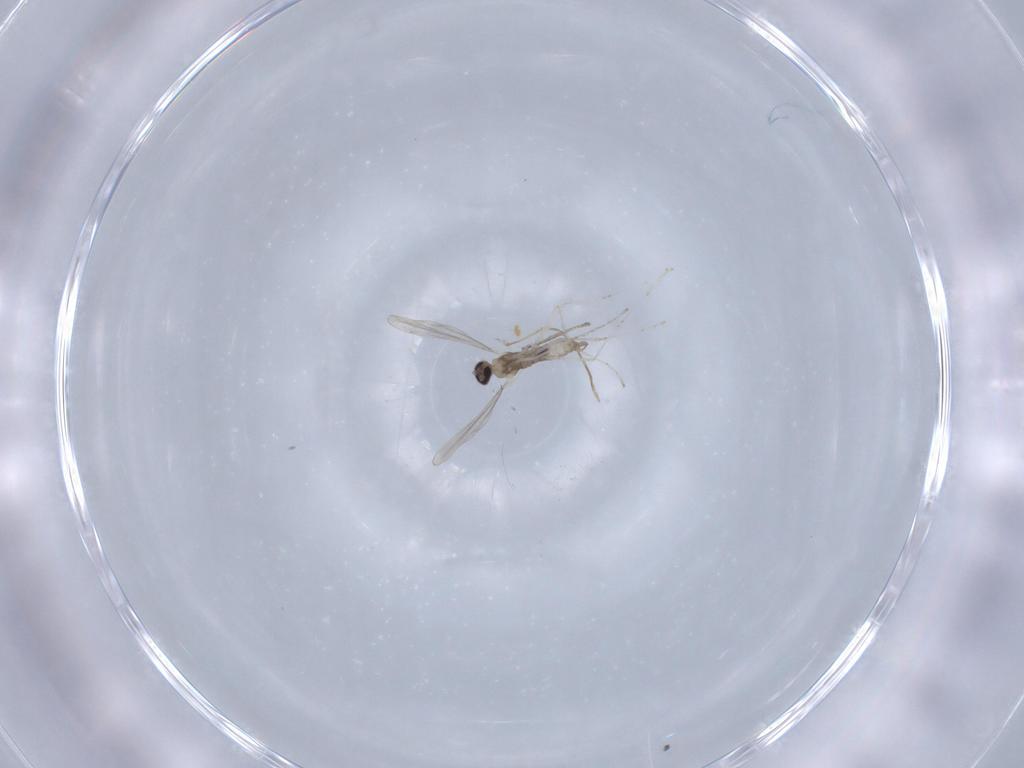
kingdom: Animalia
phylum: Arthropoda
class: Insecta
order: Diptera
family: Cecidomyiidae
